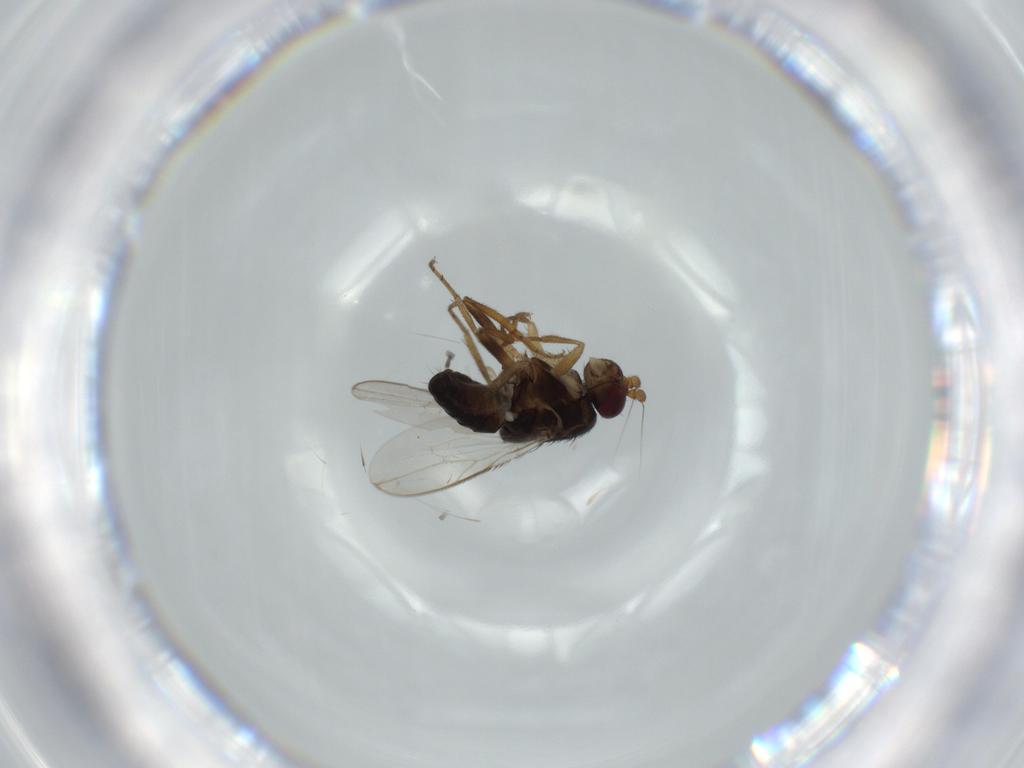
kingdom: Animalia
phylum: Arthropoda
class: Insecta
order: Diptera
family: Sphaeroceridae
